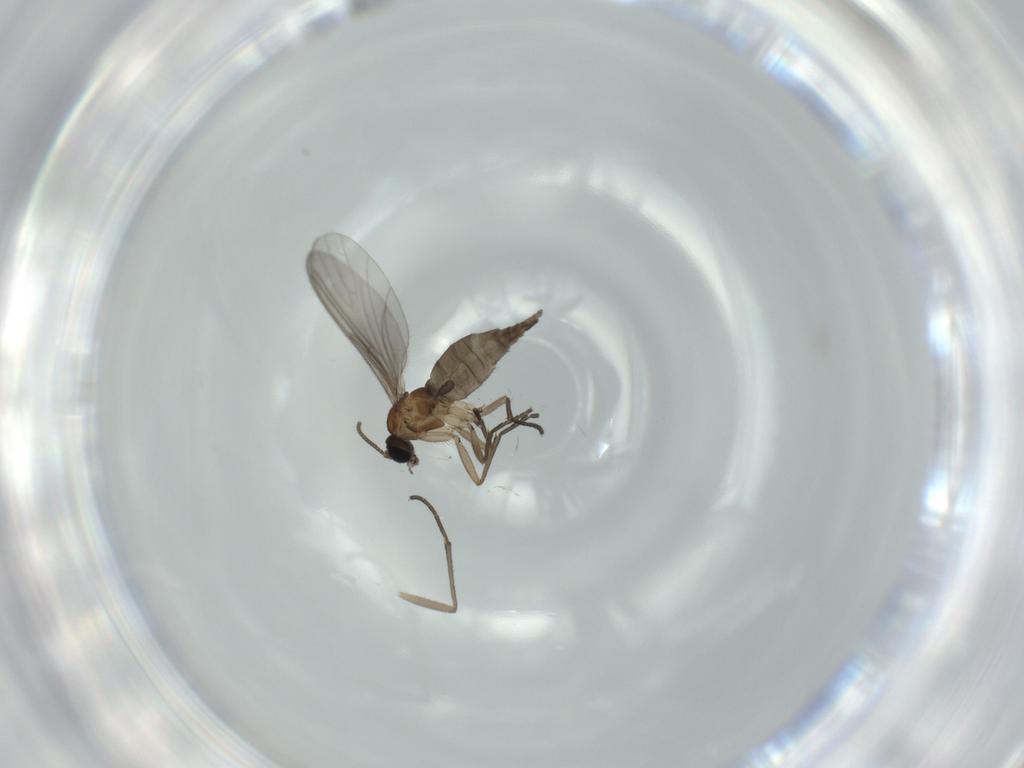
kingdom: Animalia
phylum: Arthropoda
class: Insecta
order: Diptera
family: Sciaridae
